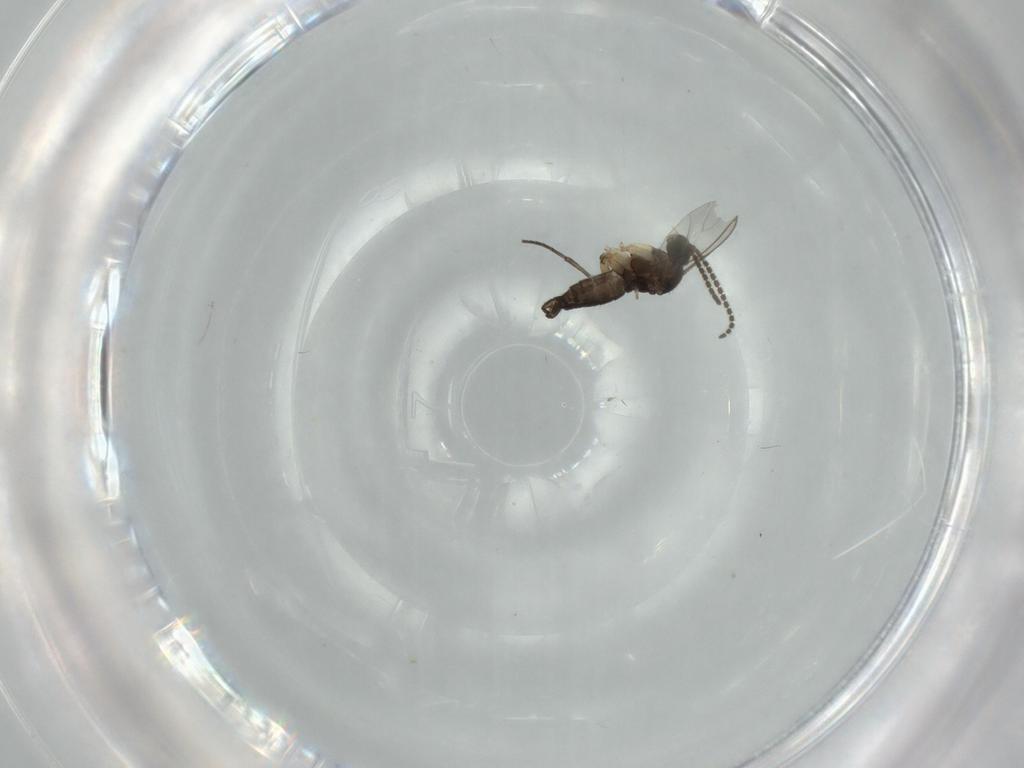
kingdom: Animalia
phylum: Arthropoda
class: Insecta
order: Diptera
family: Sciaridae
